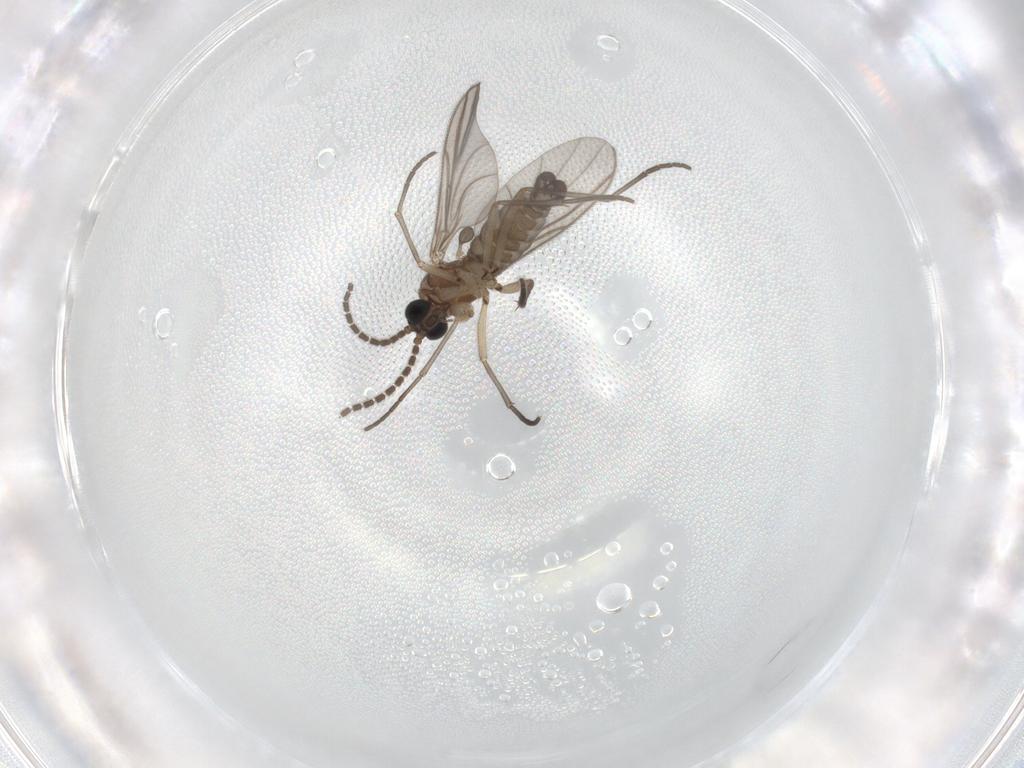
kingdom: Animalia
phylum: Arthropoda
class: Insecta
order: Diptera
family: Sciaridae
